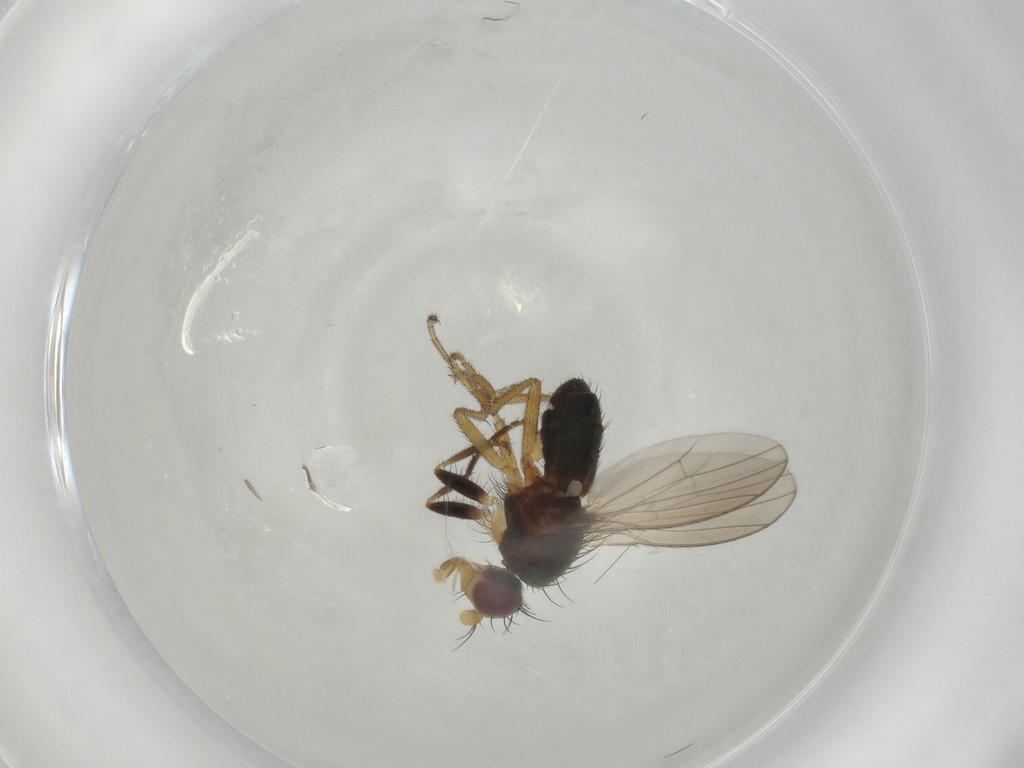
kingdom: Animalia
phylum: Arthropoda
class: Insecta
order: Diptera
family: Heleomyzidae
